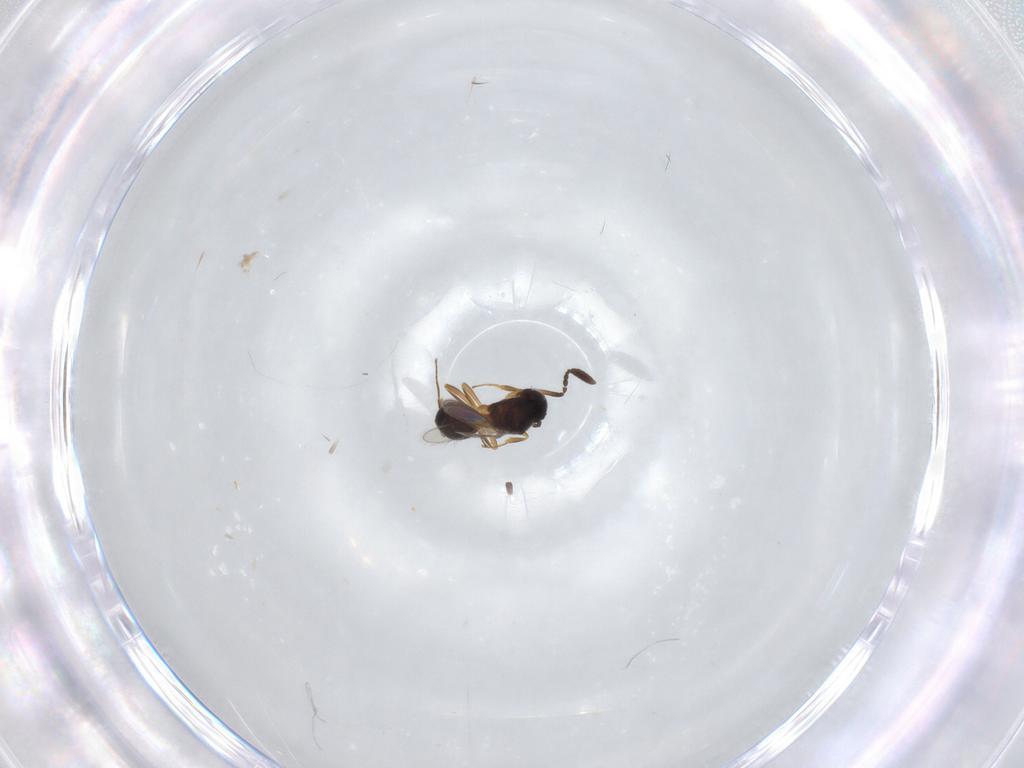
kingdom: Animalia
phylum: Arthropoda
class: Insecta
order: Hymenoptera
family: Scelionidae
